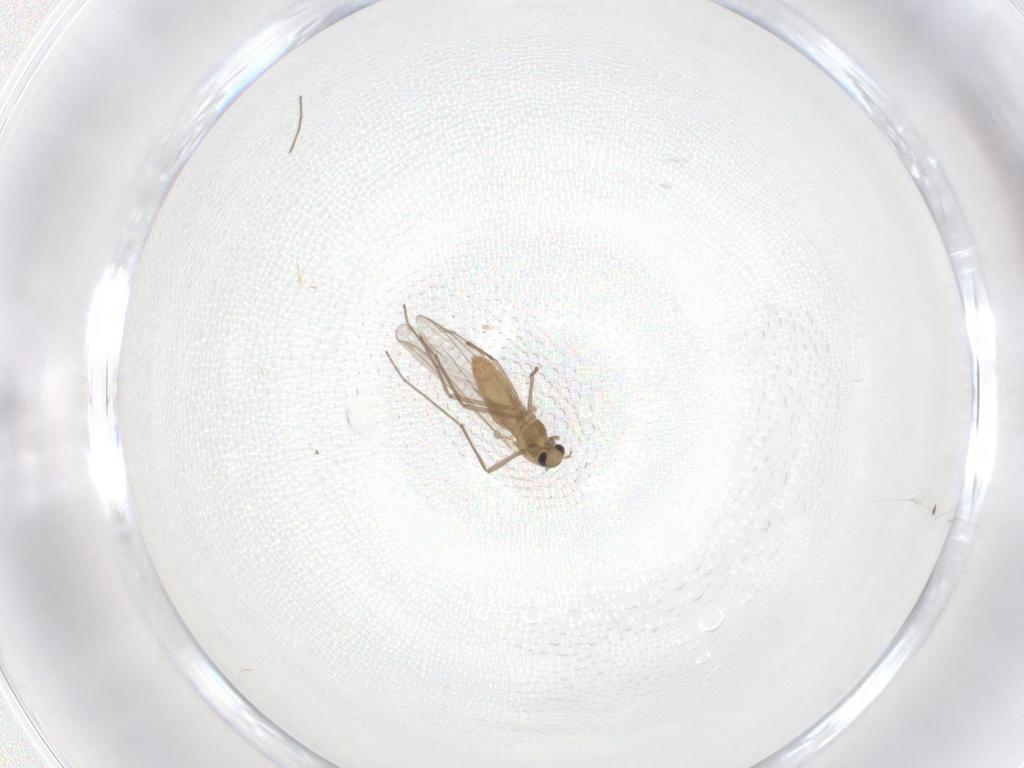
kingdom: Animalia
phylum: Arthropoda
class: Insecta
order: Diptera
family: Chironomidae
